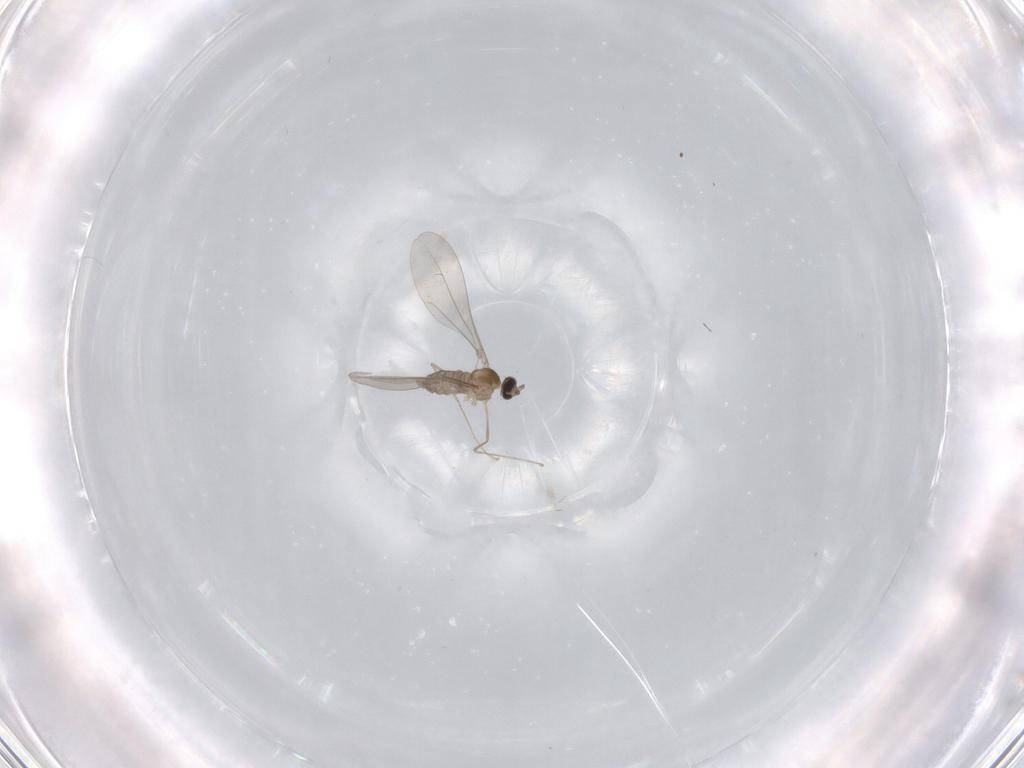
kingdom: Animalia
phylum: Arthropoda
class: Insecta
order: Diptera
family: Cecidomyiidae
